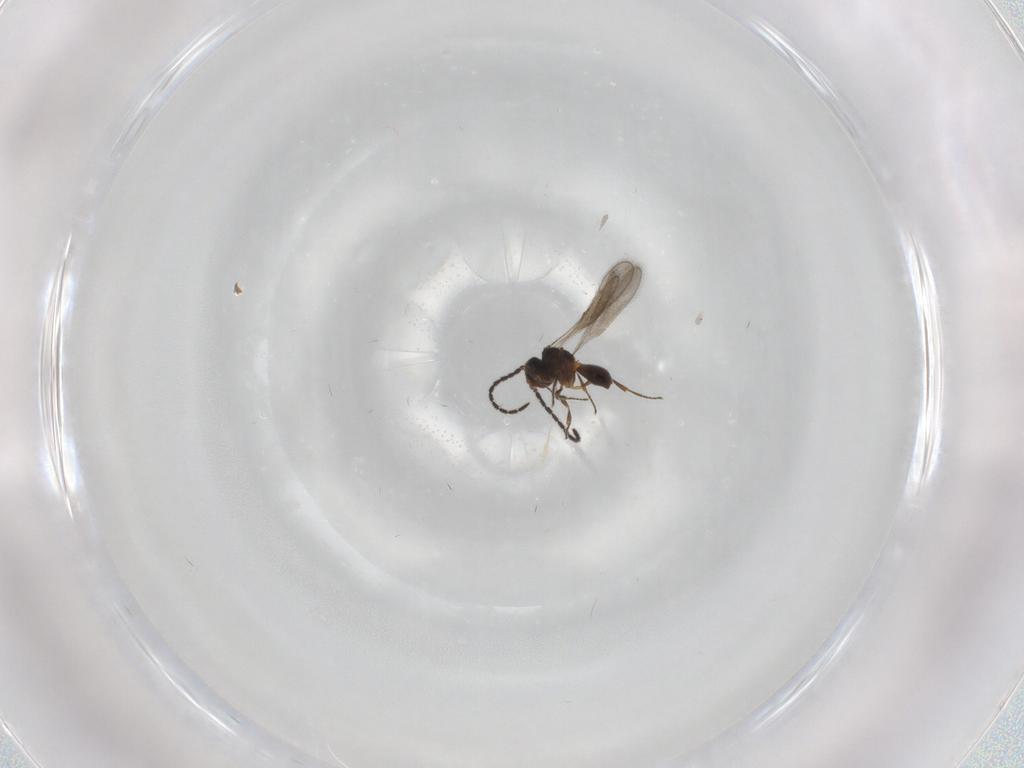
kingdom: Animalia
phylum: Arthropoda
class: Insecta
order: Hymenoptera
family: Scelionidae
